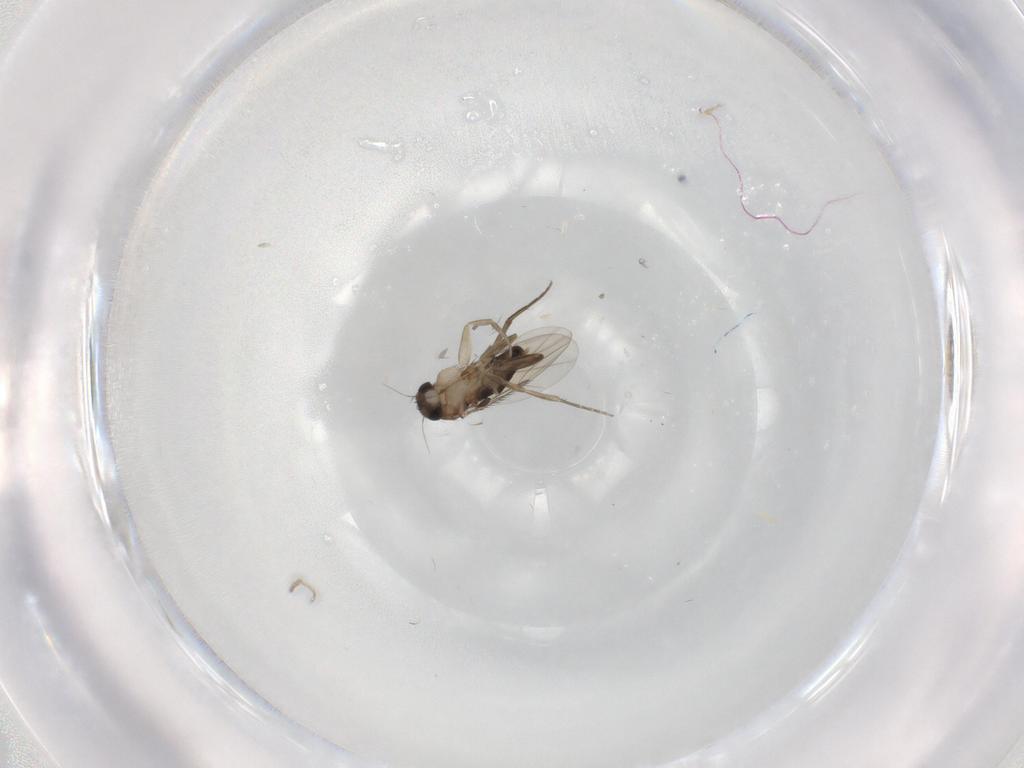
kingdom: Animalia
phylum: Arthropoda
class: Insecta
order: Diptera
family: Phoridae
